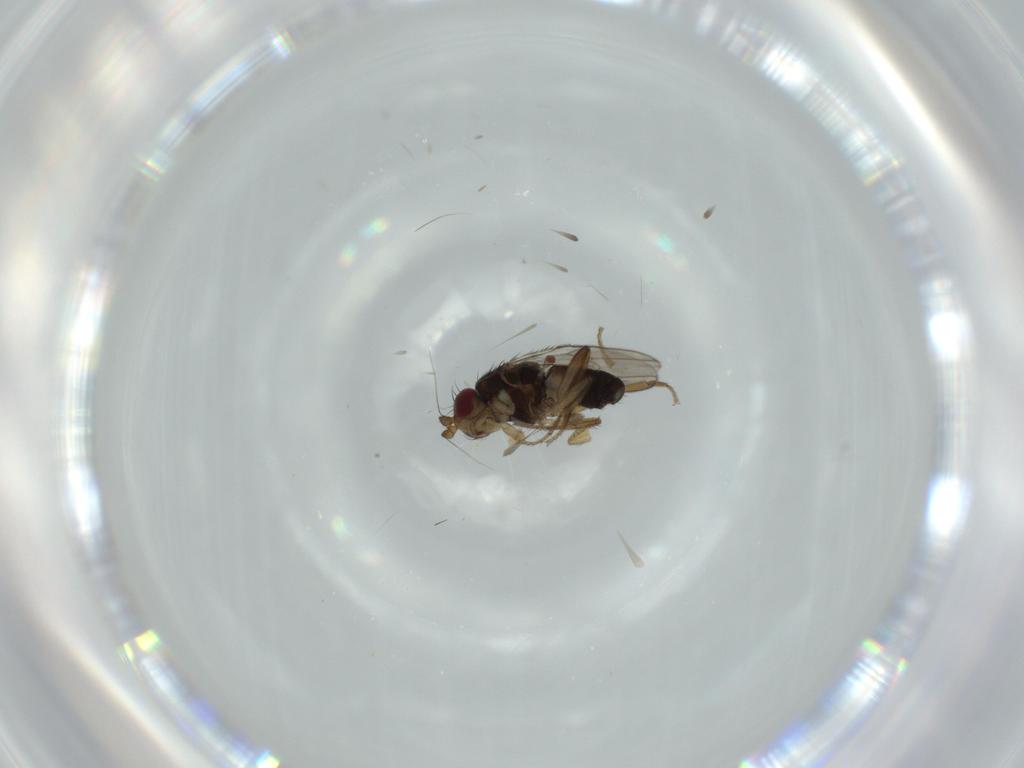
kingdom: Animalia
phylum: Arthropoda
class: Insecta
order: Diptera
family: Sphaeroceridae
